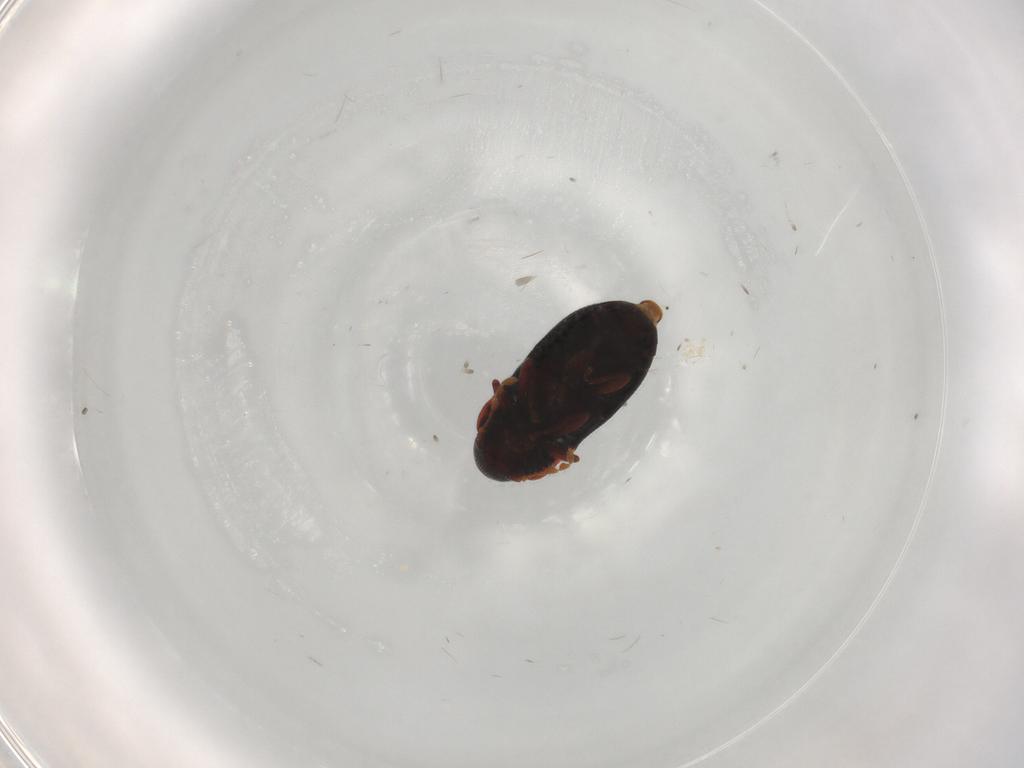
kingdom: Animalia
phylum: Arthropoda
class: Insecta
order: Coleoptera
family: Ptinidae
